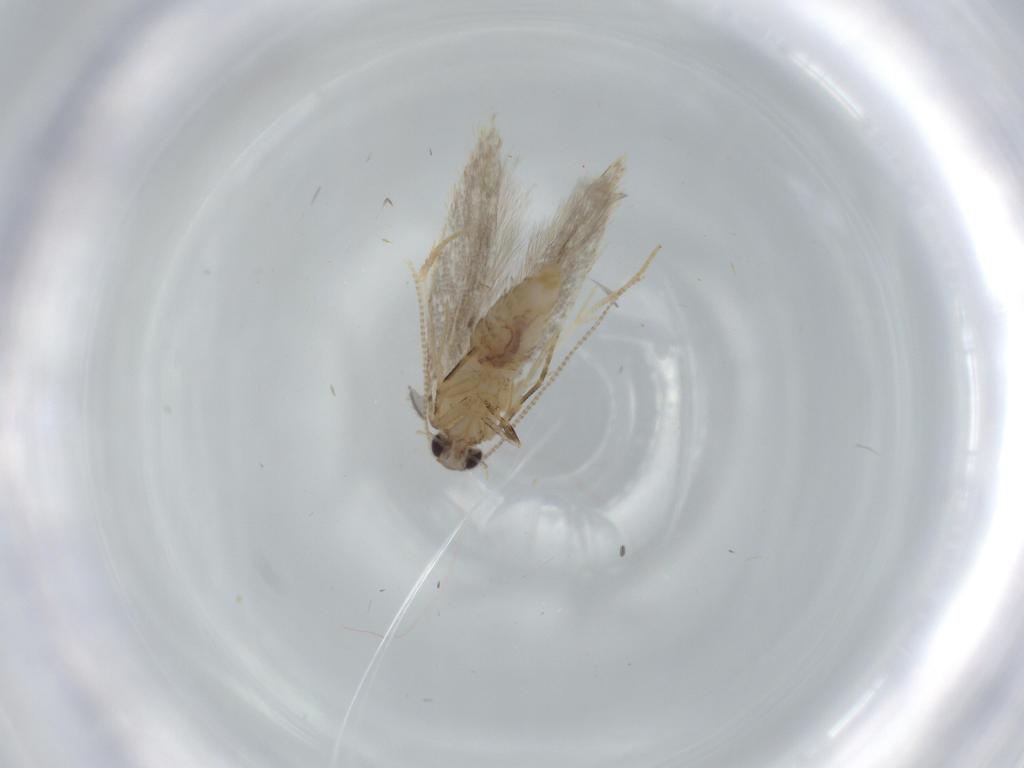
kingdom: Animalia
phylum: Arthropoda
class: Insecta
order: Lepidoptera
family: Tineidae
